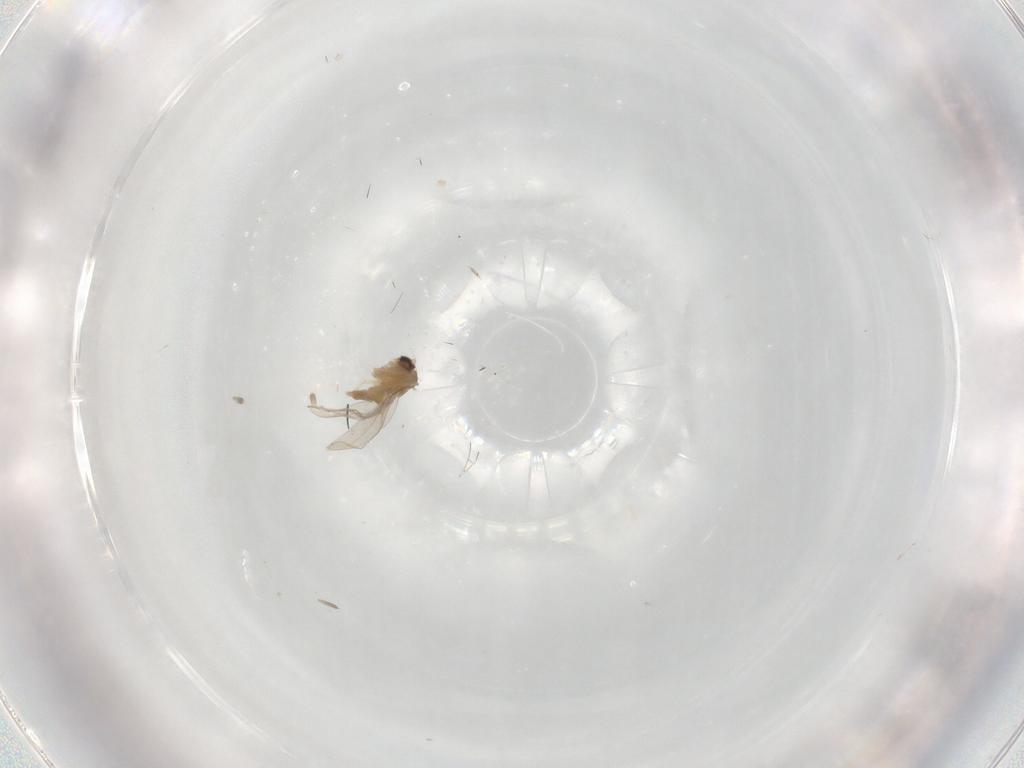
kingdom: Animalia
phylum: Arthropoda
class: Insecta
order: Diptera
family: Cecidomyiidae
